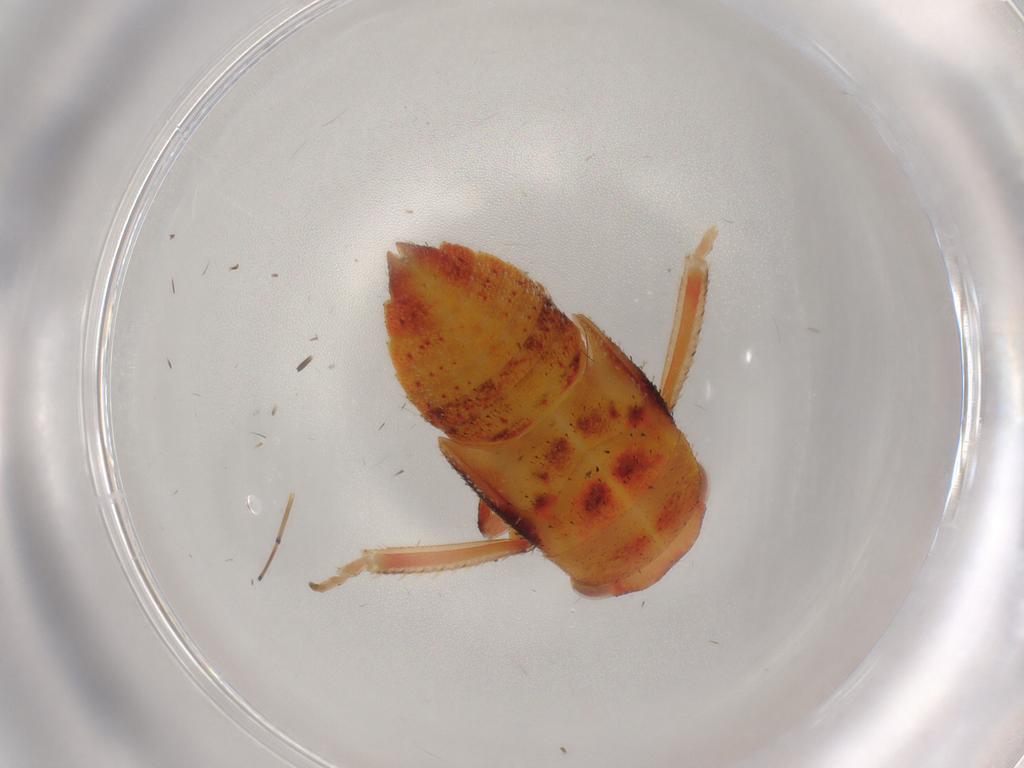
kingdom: Animalia
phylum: Arthropoda
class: Insecta
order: Hemiptera
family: Cicadellidae
